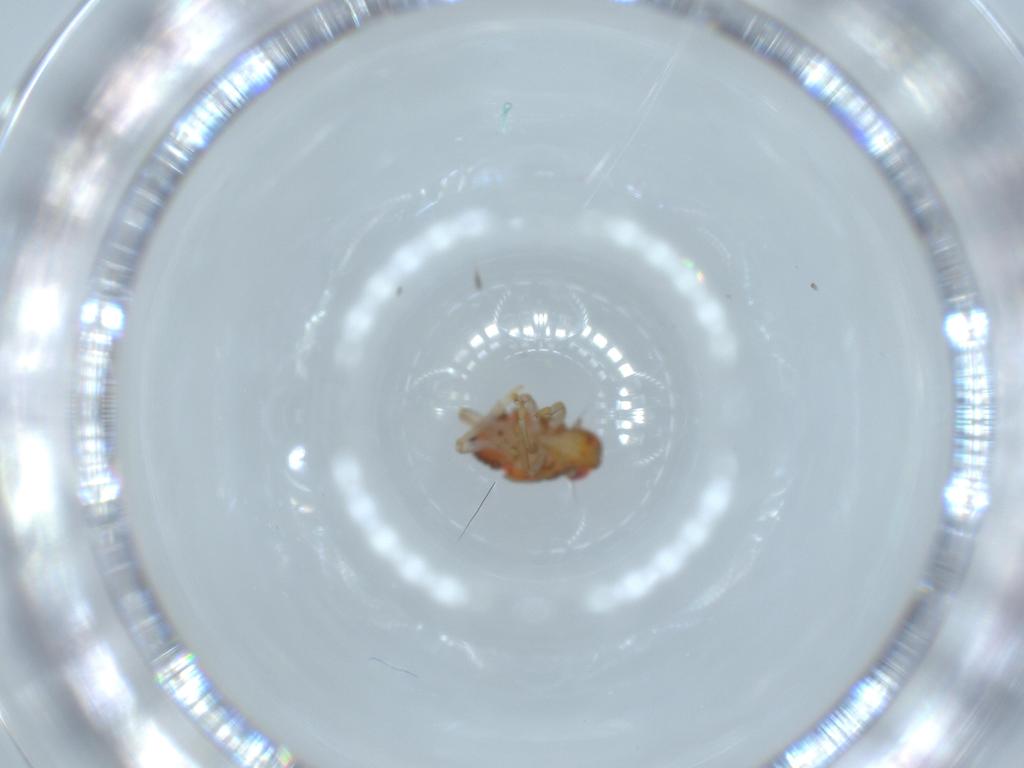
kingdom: Animalia
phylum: Arthropoda
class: Insecta
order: Hemiptera
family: Issidae
